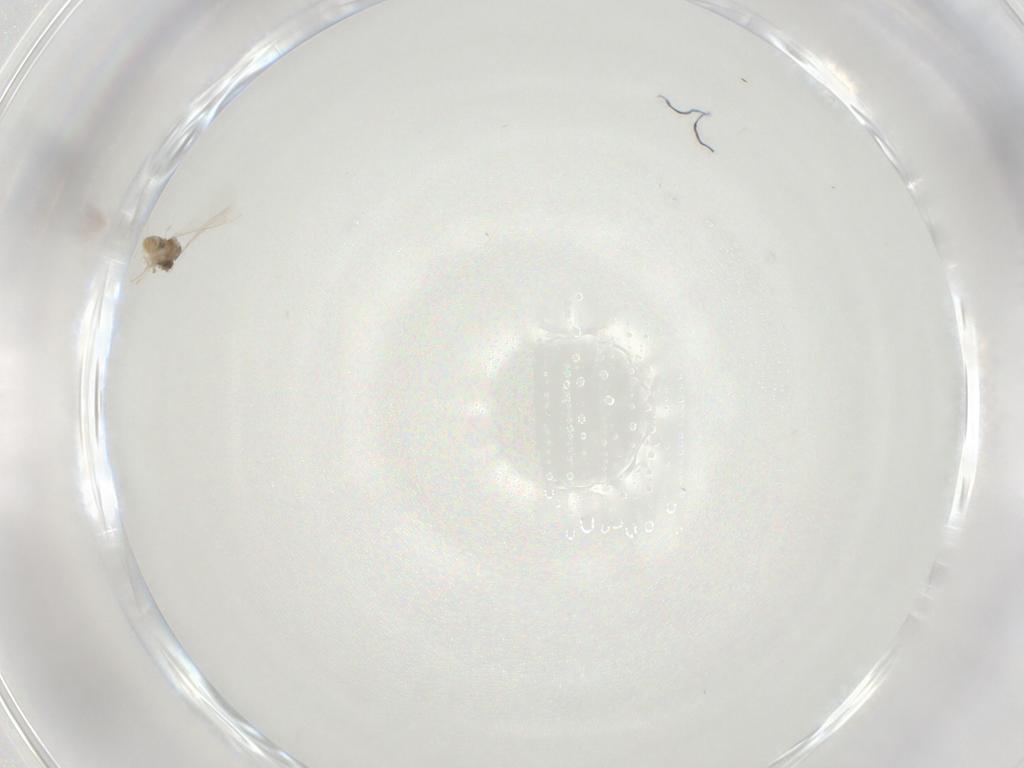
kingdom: Animalia
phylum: Arthropoda
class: Insecta
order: Diptera
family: Cecidomyiidae
